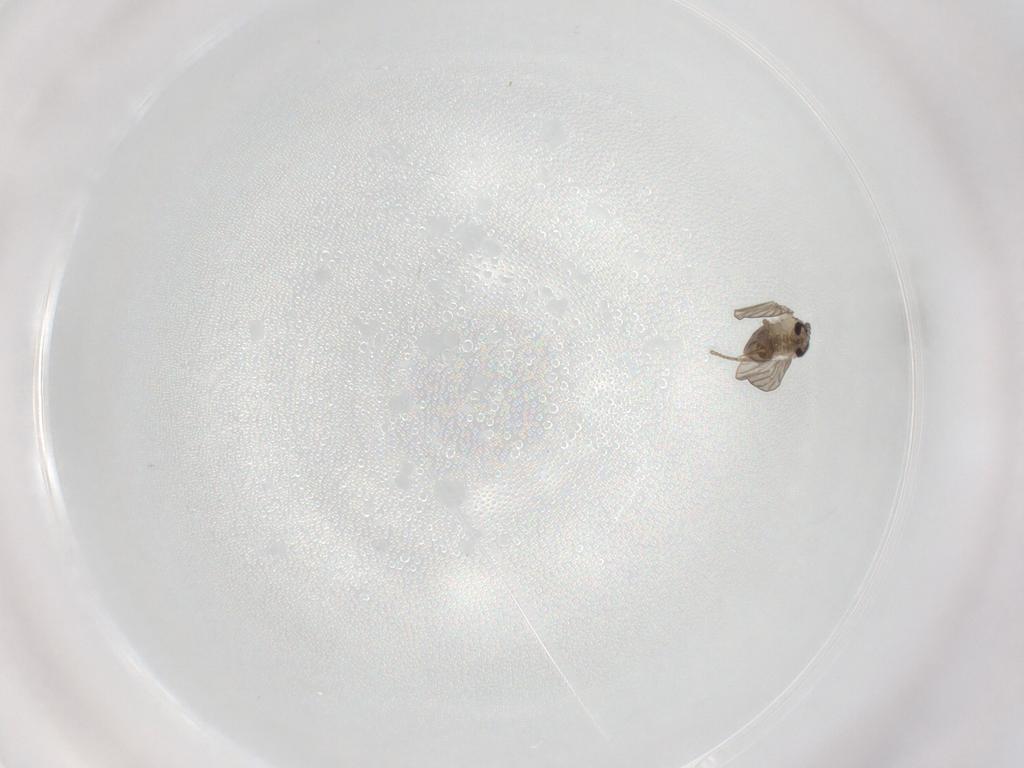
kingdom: Animalia
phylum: Arthropoda
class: Insecta
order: Diptera
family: Psychodidae
